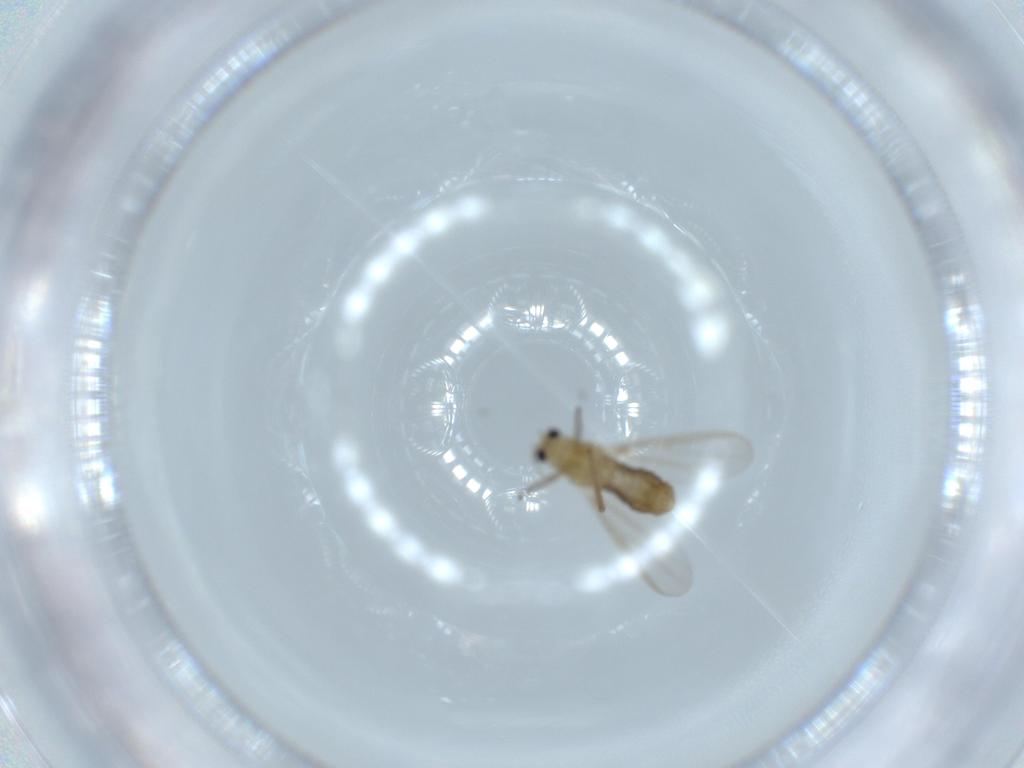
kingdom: Animalia
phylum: Arthropoda
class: Insecta
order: Diptera
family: Chironomidae
